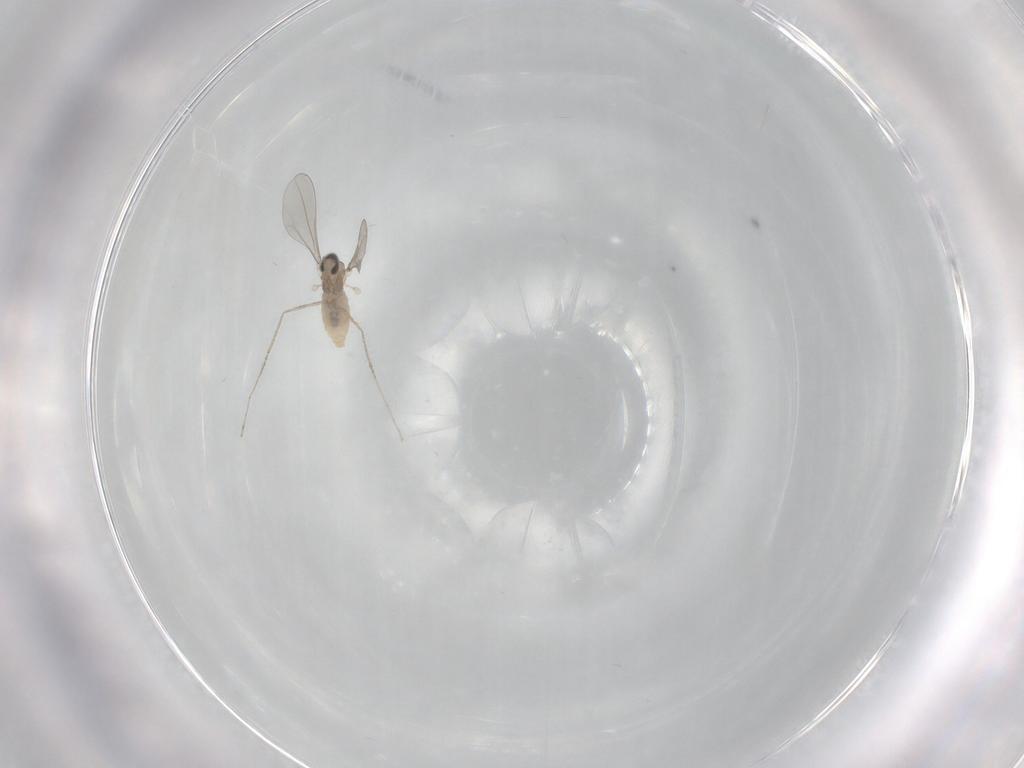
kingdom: Animalia
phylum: Arthropoda
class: Insecta
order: Diptera
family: Cecidomyiidae
